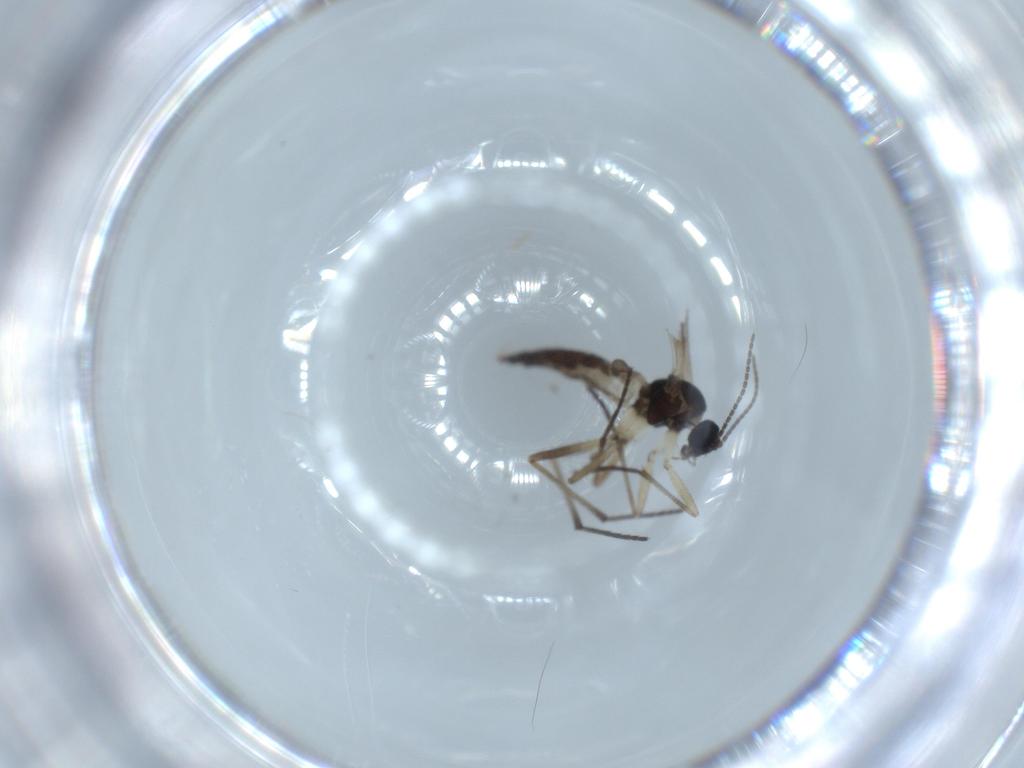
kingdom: Animalia
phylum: Arthropoda
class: Insecta
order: Diptera
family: Sciaridae
